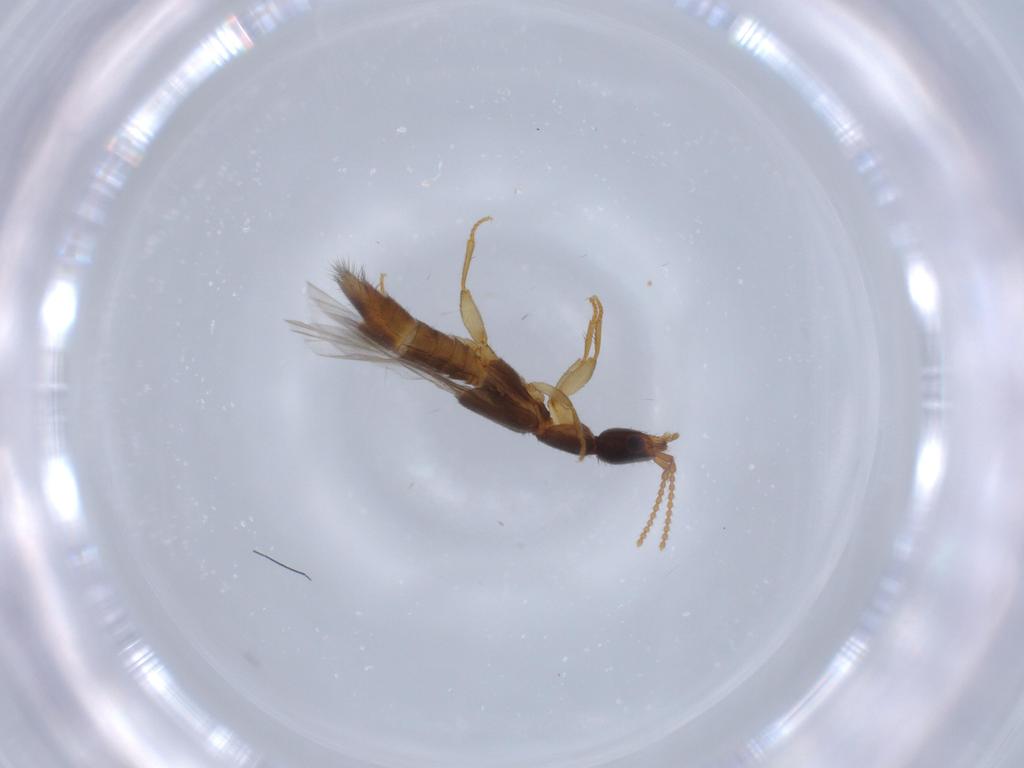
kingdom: Animalia
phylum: Arthropoda
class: Insecta
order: Coleoptera
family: Staphylinidae
